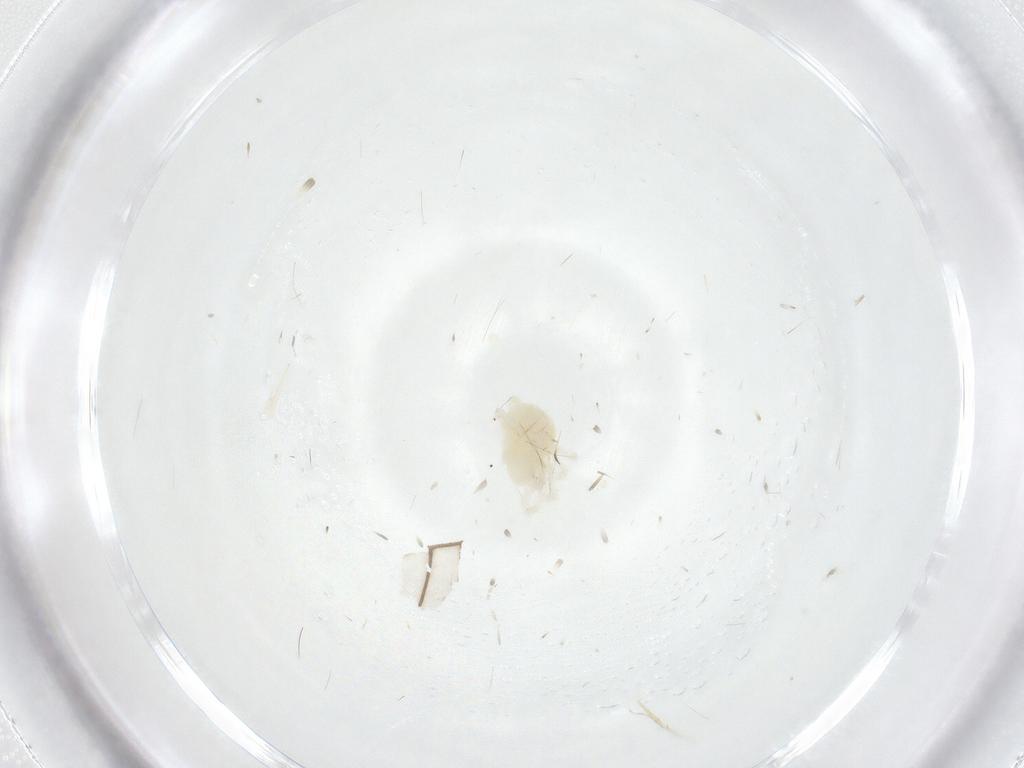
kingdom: Animalia
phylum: Arthropoda
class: Arachnida
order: Trombidiformes
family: Anystidae
